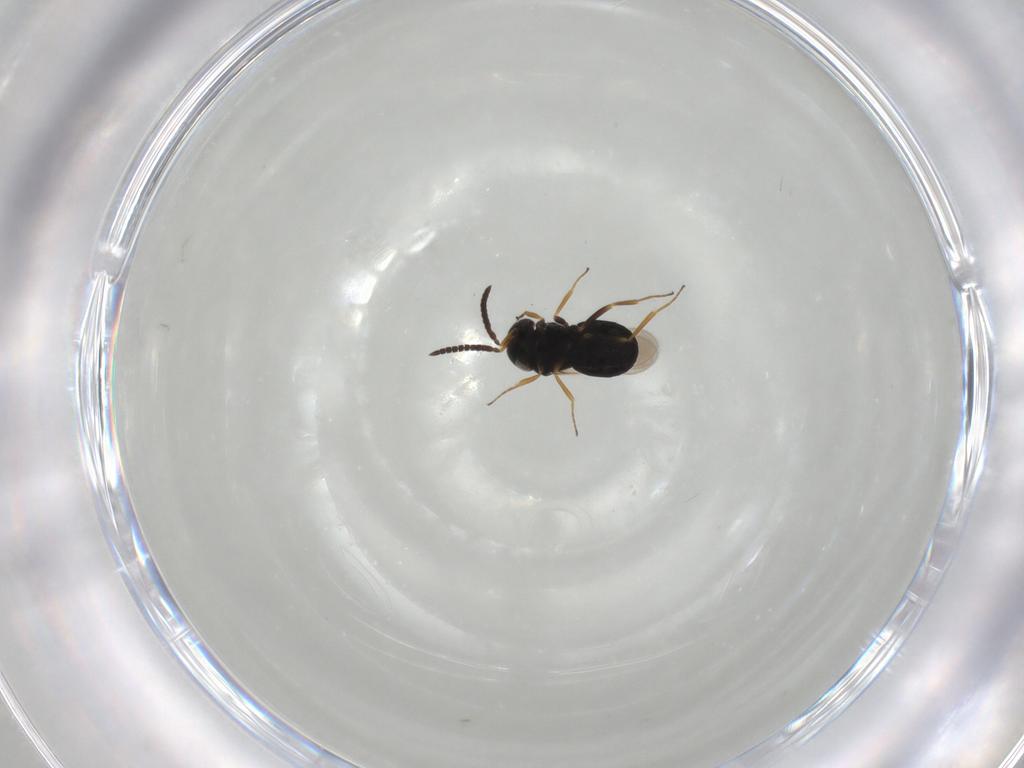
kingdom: Animalia
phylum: Arthropoda
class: Insecta
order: Hymenoptera
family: Scelionidae
